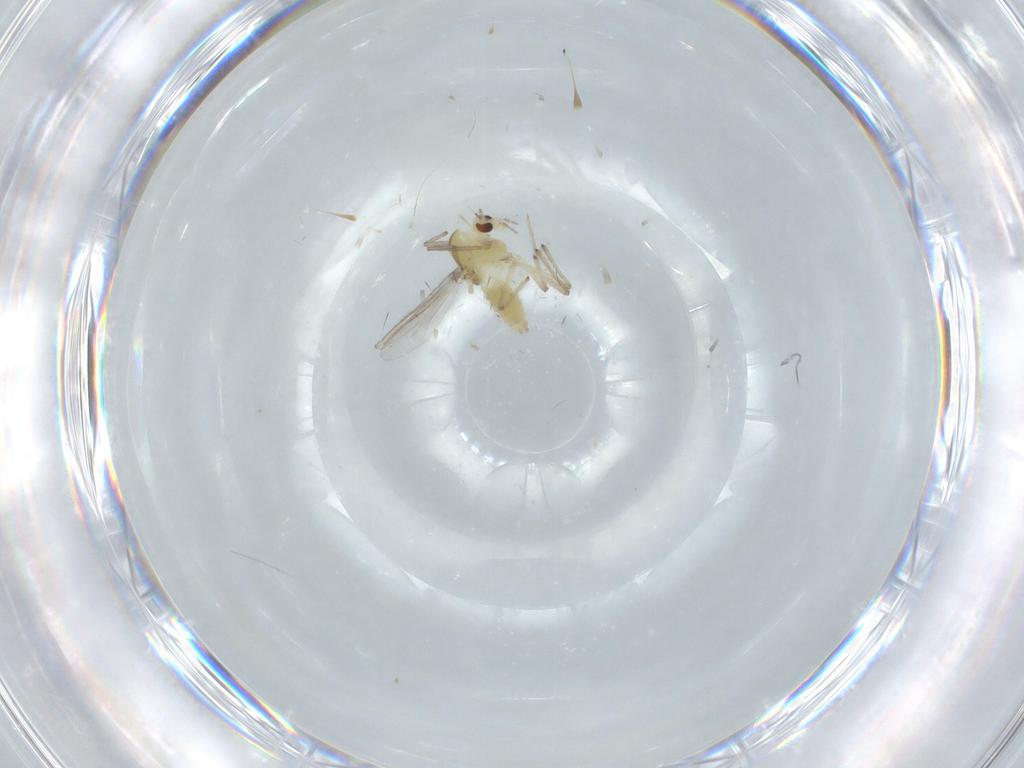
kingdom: Animalia
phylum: Arthropoda
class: Insecta
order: Diptera
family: Chironomidae
